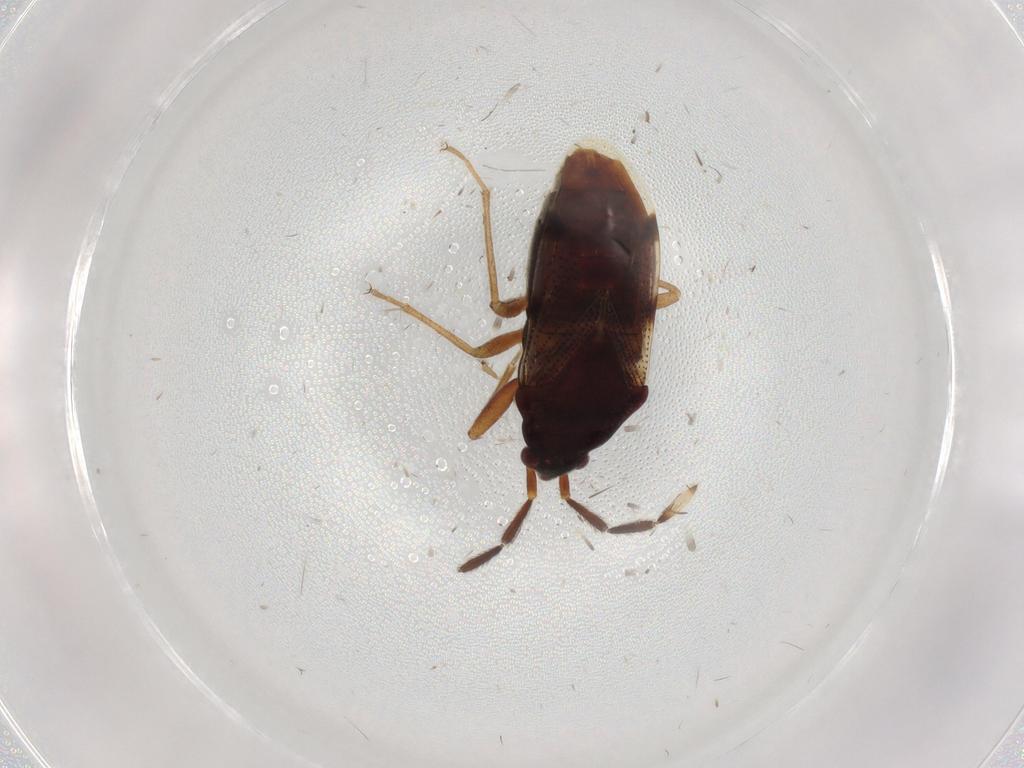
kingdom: Animalia
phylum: Arthropoda
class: Insecta
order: Hemiptera
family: Rhyparochromidae
